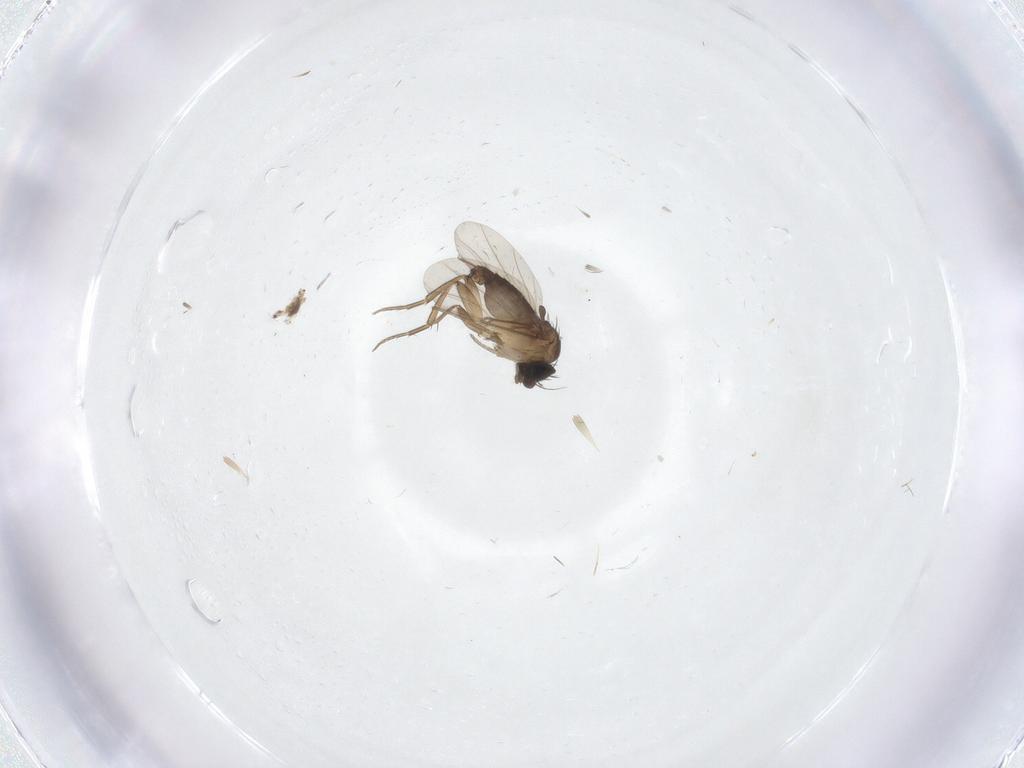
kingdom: Animalia
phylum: Arthropoda
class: Insecta
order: Diptera
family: Phoridae
